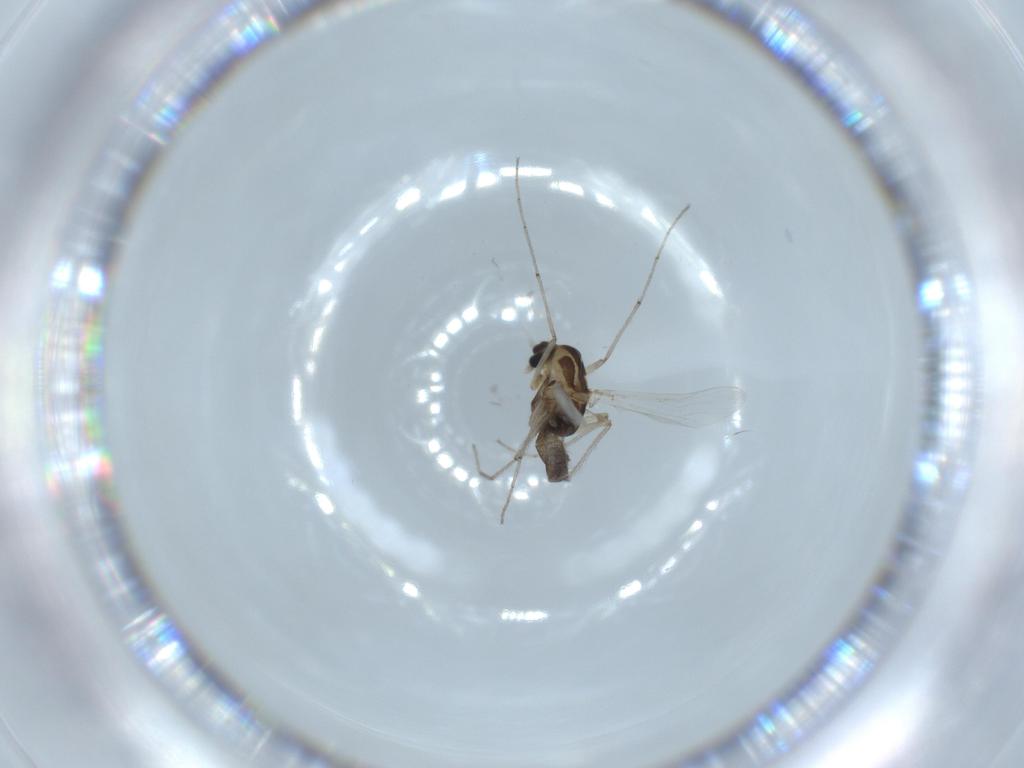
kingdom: Animalia
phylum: Arthropoda
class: Insecta
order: Diptera
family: Chironomidae
